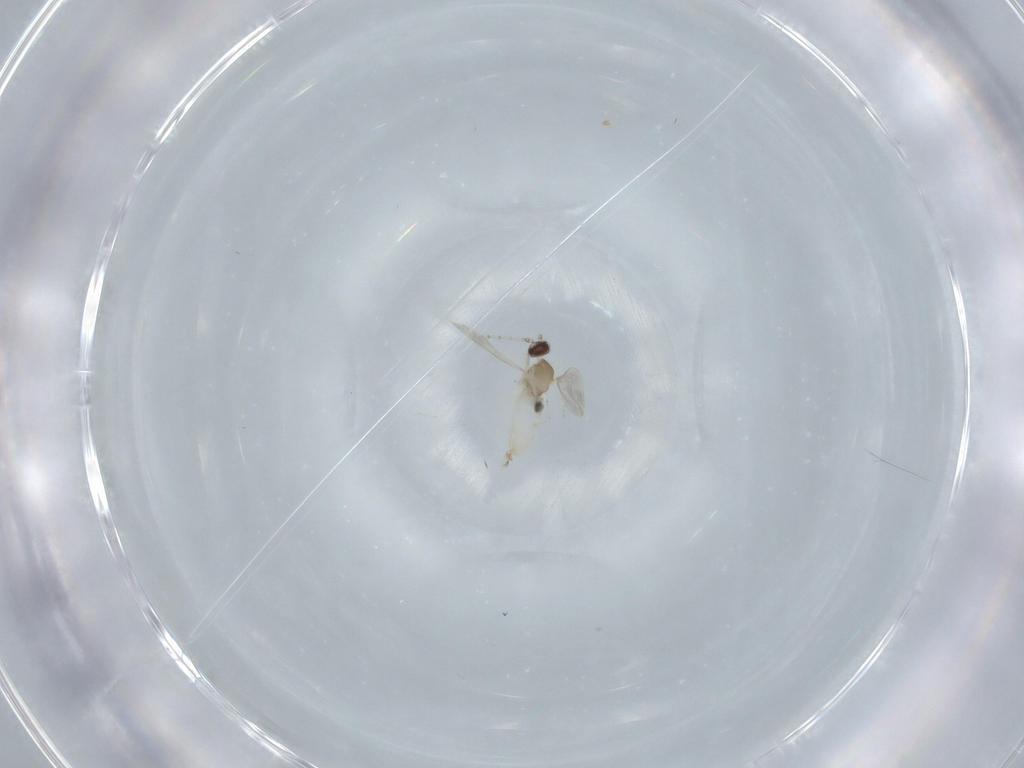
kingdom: Animalia
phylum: Arthropoda
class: Insecta
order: Diptera
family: Cecidomyiidae
